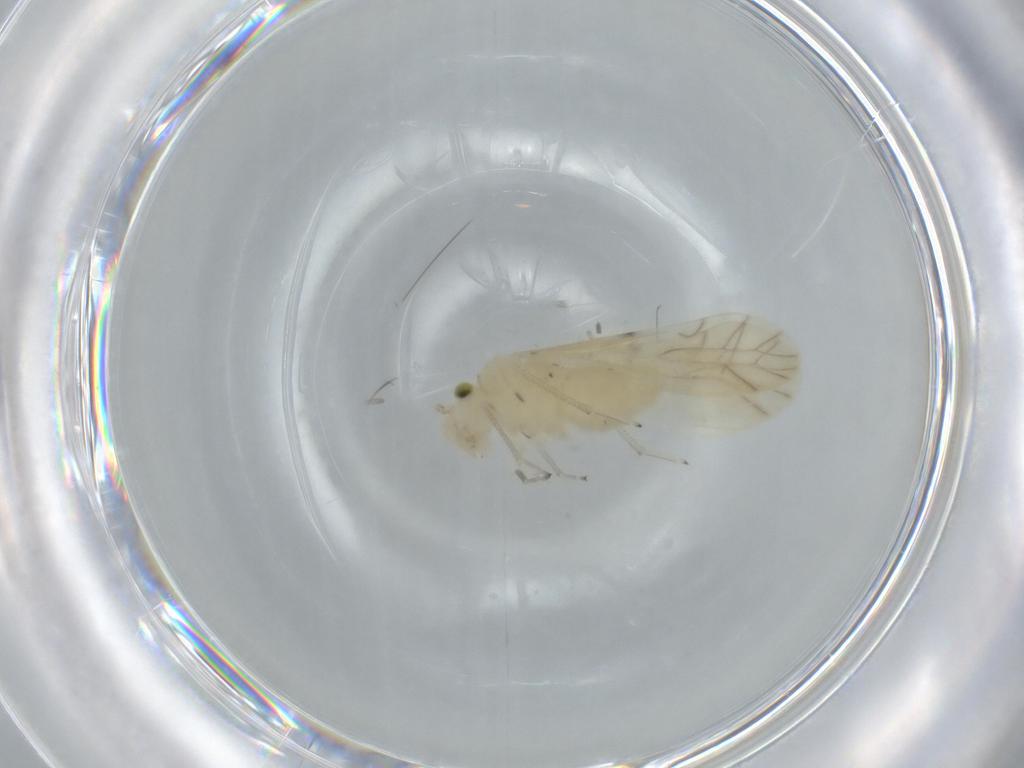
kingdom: Animalia
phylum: Arthropoda
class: Insecta
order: Psocodea
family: Caeciliusidae
